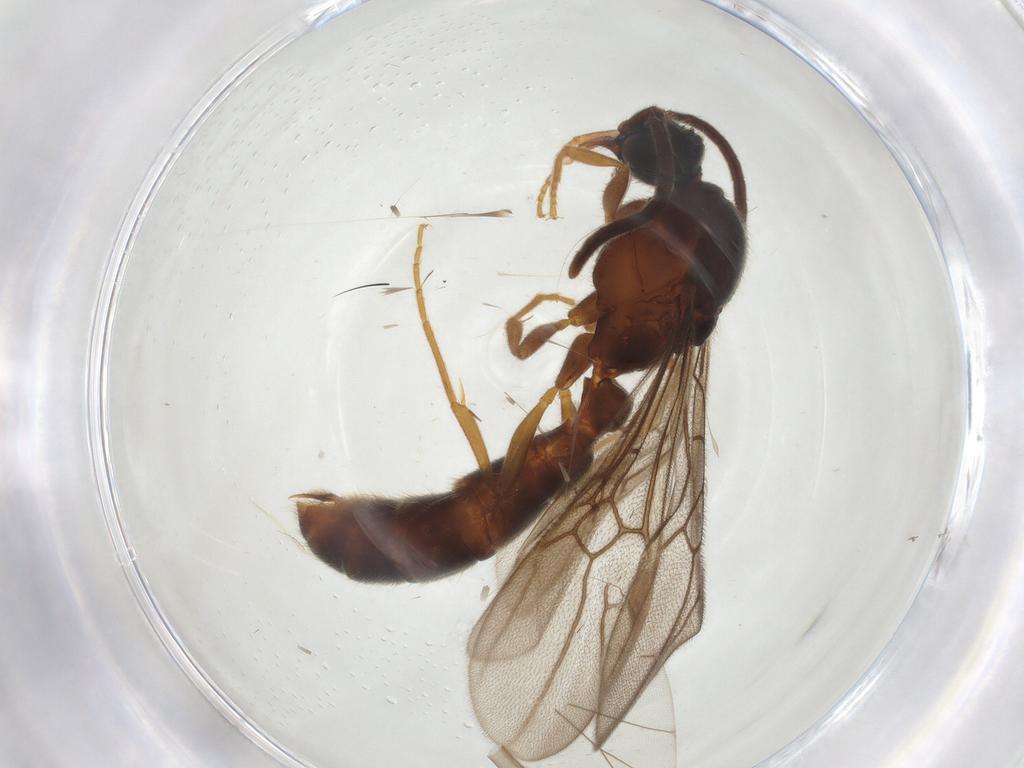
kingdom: Animalia
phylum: Arthropoda
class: Insecta
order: Hymenoptera
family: Formicidae
